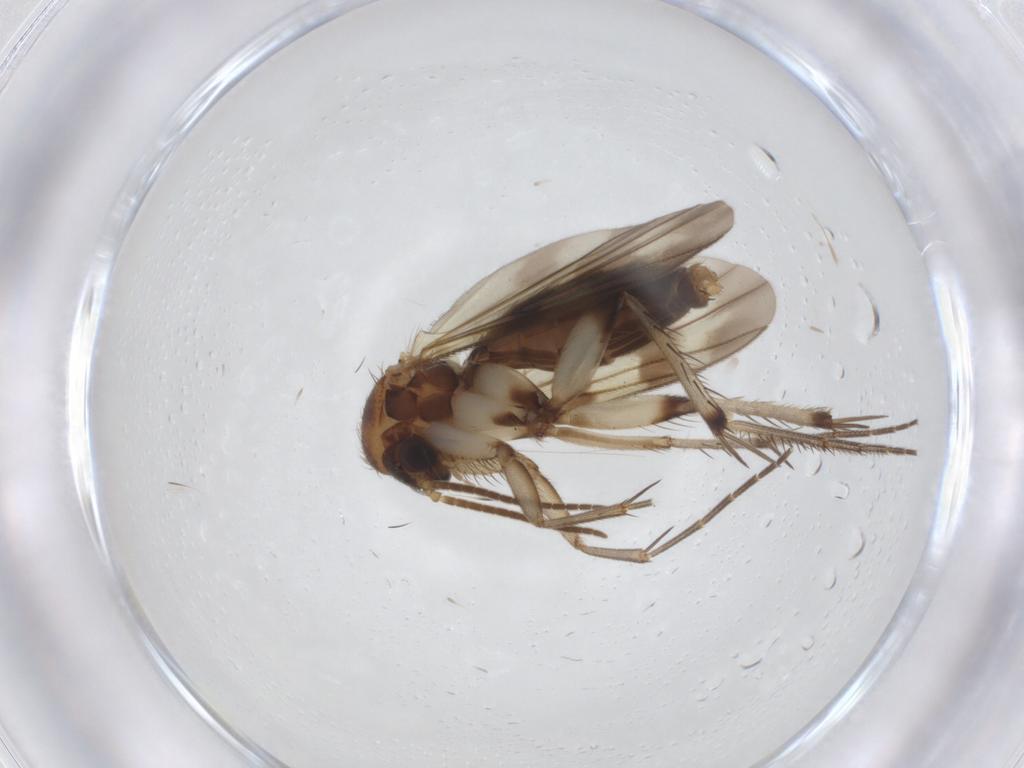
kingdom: Animalia
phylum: Arthropoda
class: Insecta
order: Diptera
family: Mycetophilidae
